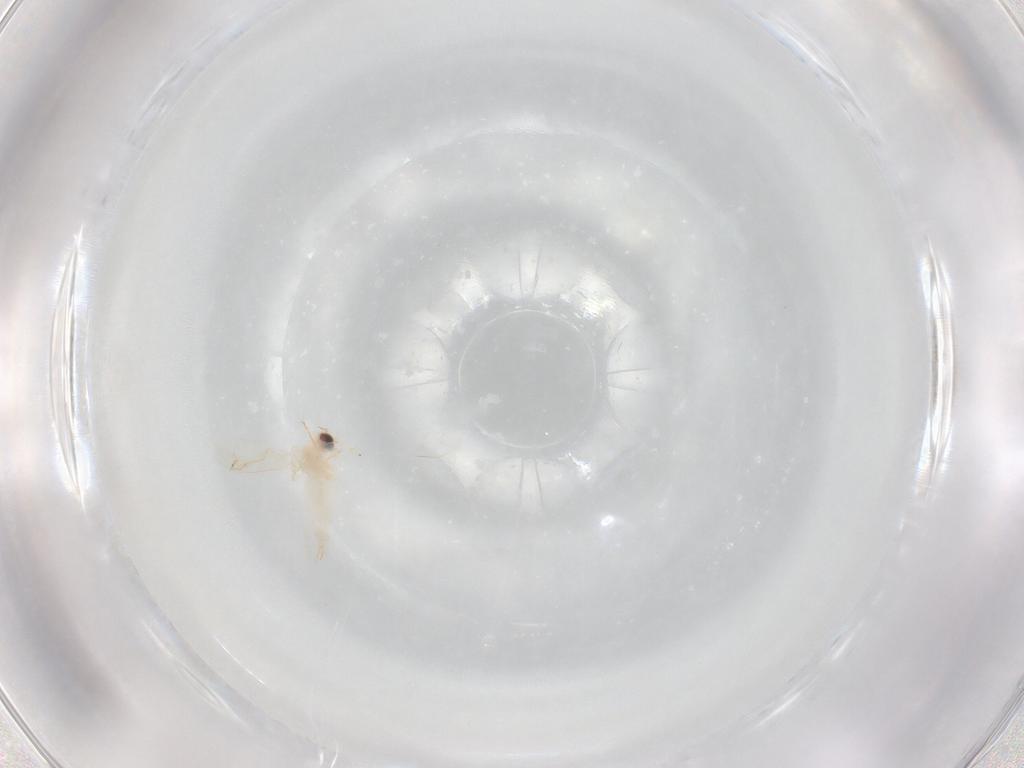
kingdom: Animalia
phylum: Arthropoda
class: Insecta
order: Hemiptera
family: Aleyrodidae
